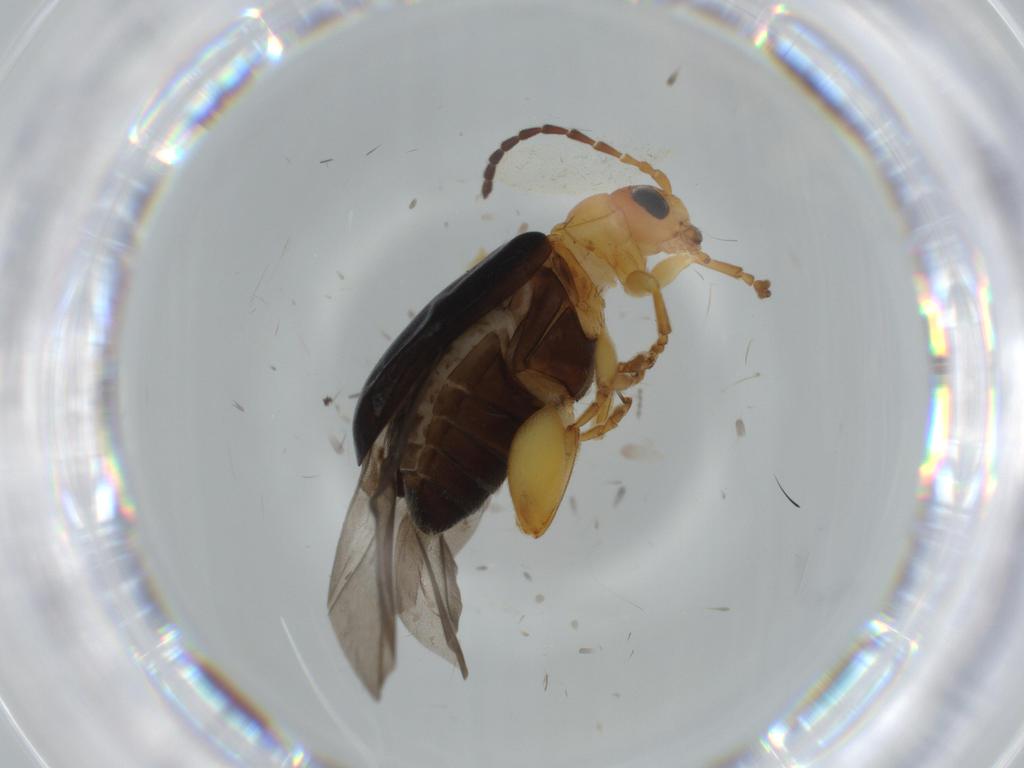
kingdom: Animalia
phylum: Arthropoda
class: Insecta
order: Coleoptera
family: Chrysomelidae
